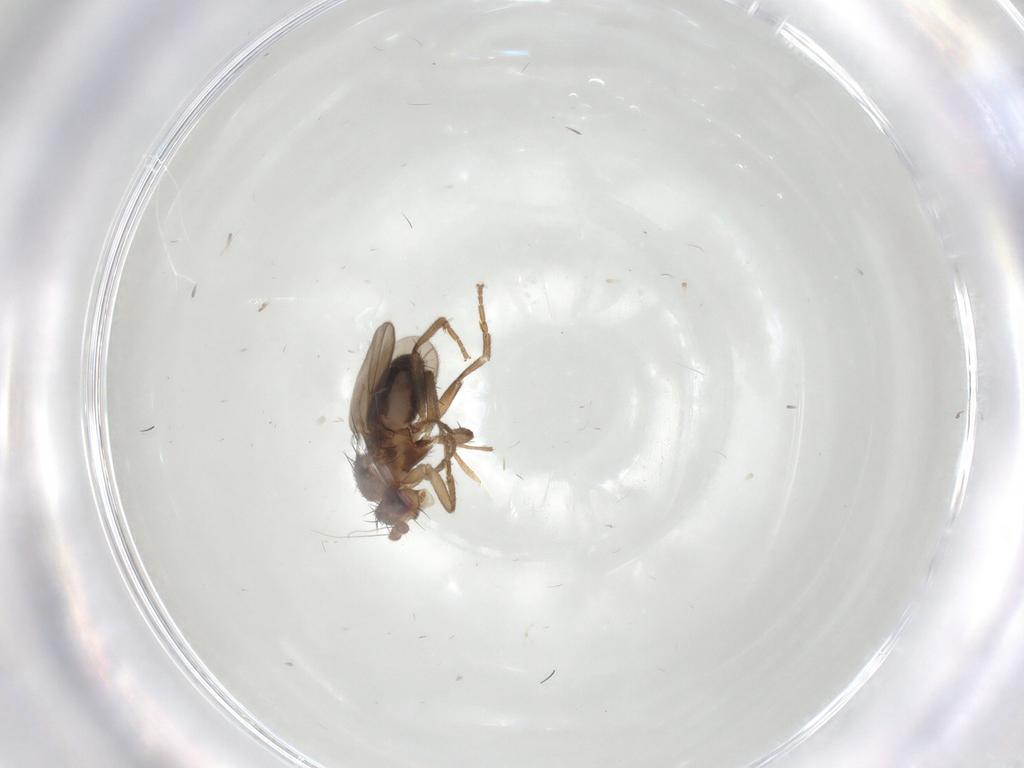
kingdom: Animalia
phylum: Arthropoda
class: Insecta
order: Diptera
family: Sphaeroceridae
